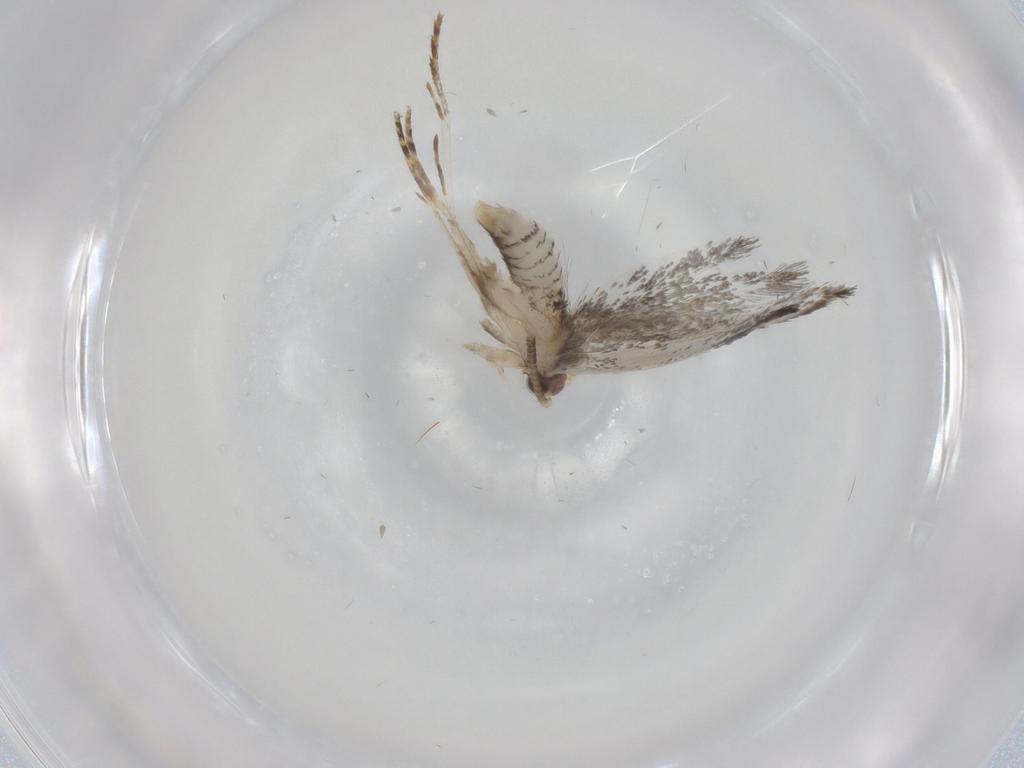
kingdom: Animalia
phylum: Arthropoda
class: Insecta
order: Lepidoptera
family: Tineidae
